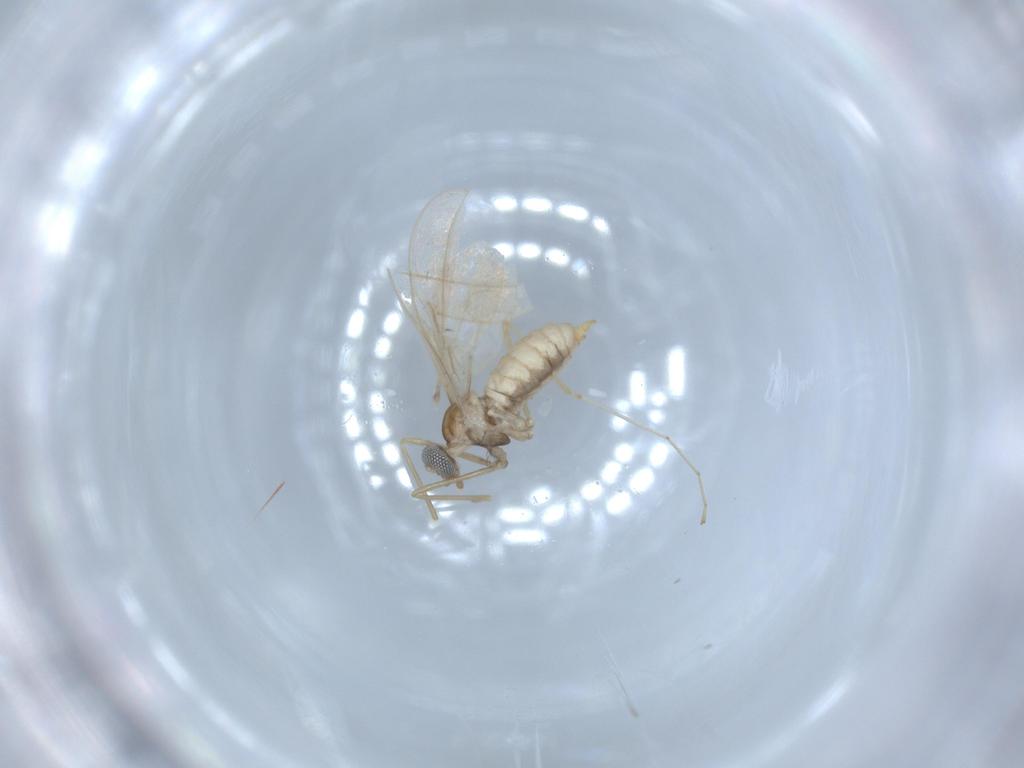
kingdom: Animalia
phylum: Arthropoda
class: Insecta
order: Diptera
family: Cecidomyiidae
